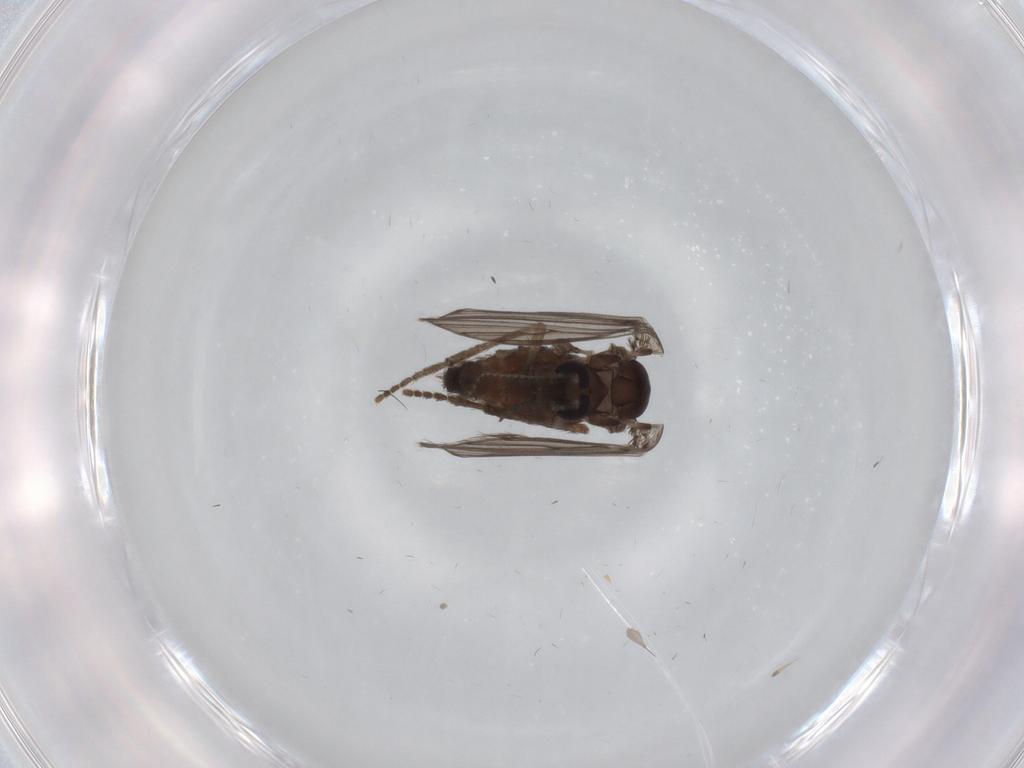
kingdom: Animalia
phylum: Arthropoda
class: Insecta
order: Diptera
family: Psychodidae
